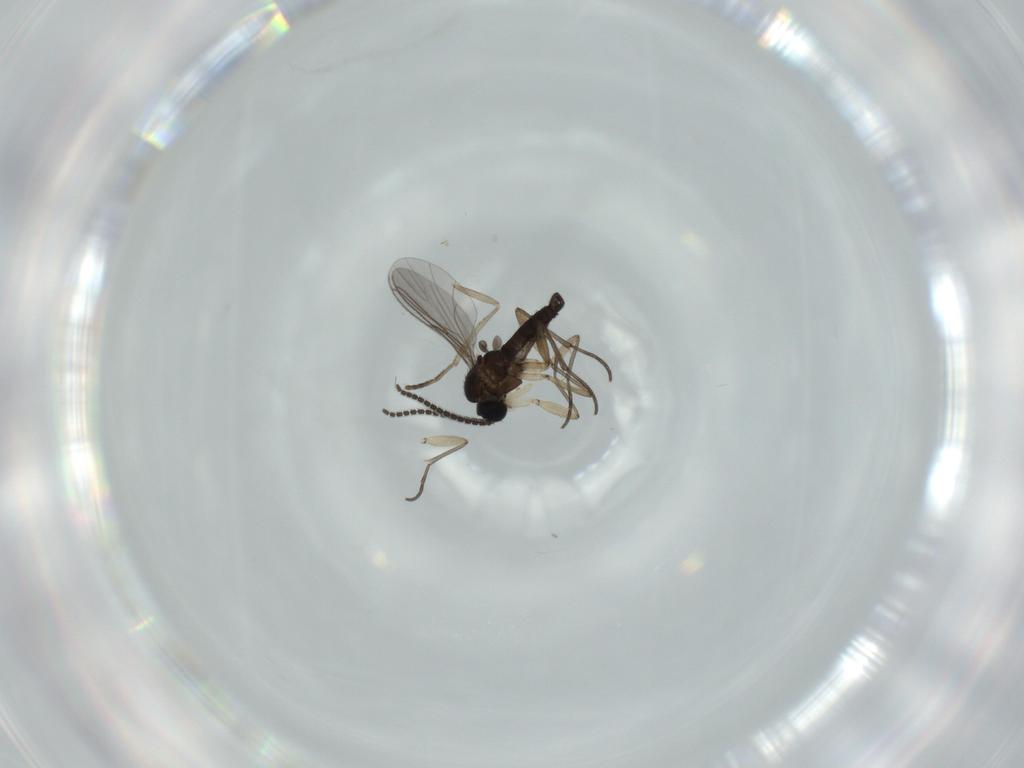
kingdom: Animalia
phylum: Arthropoda
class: Insecta
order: Diptera
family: Sciaridae
